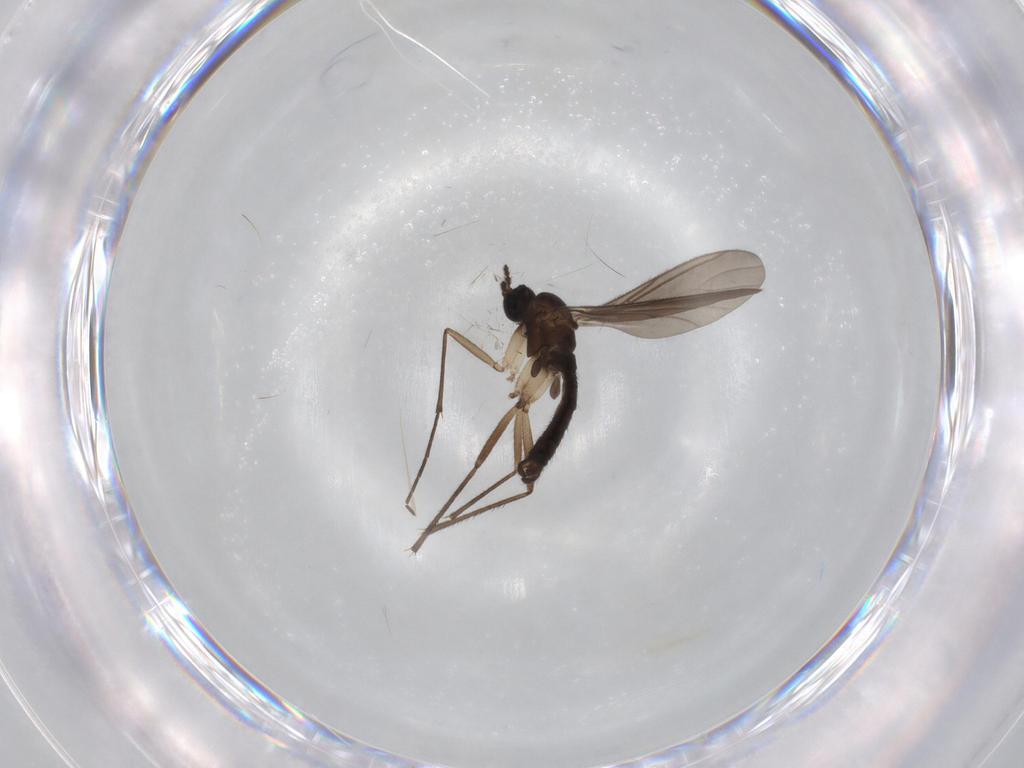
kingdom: Animalia
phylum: Arthropoda
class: Insecta
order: Diptera
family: Sciaridae
